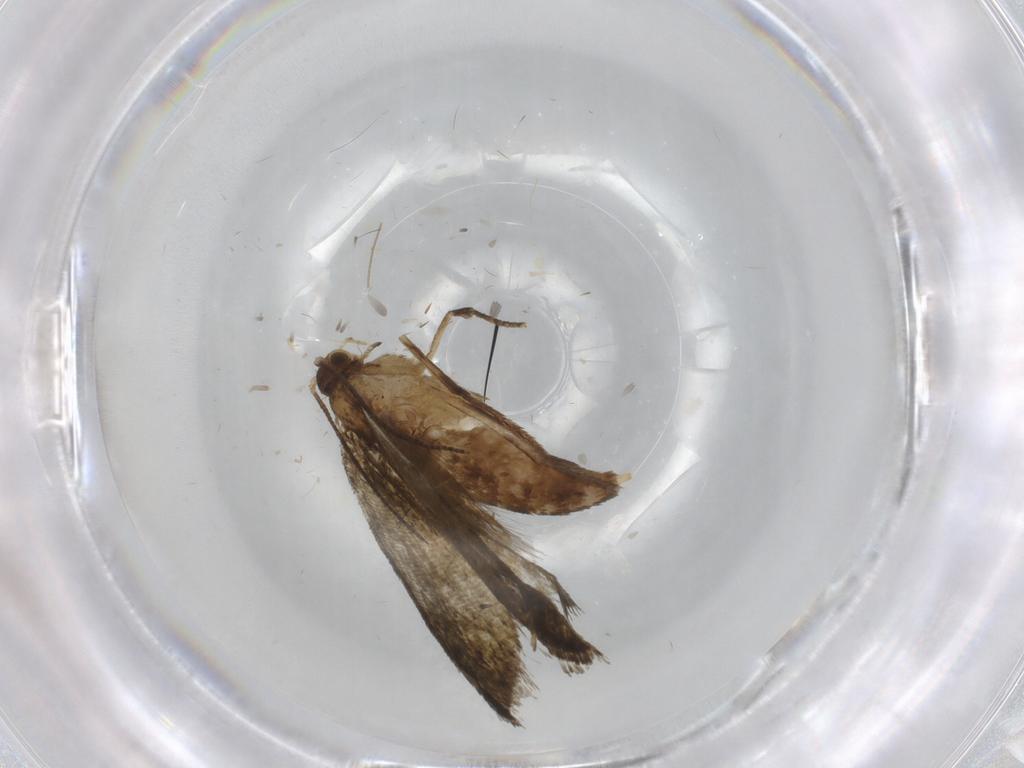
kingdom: Animalia
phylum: Arthropoda
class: Insecta
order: Lepidoptera
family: Tineidae
